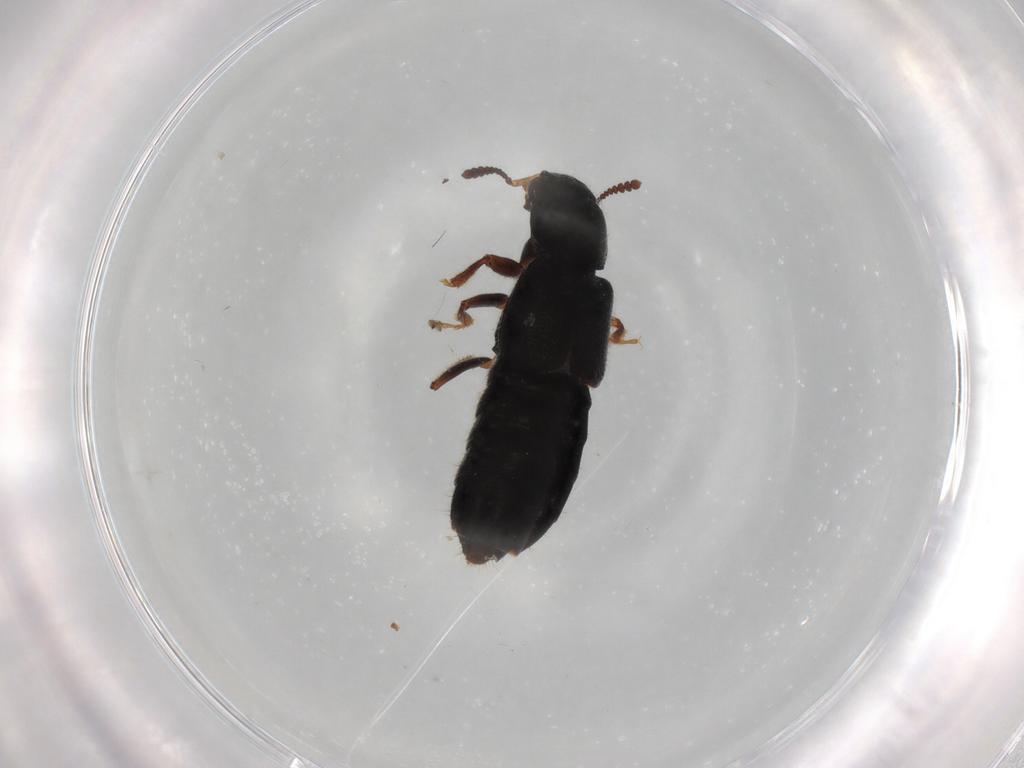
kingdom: Animalia
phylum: Arthropoda
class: Insecta
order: Coleoptera
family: Staphylinidae
